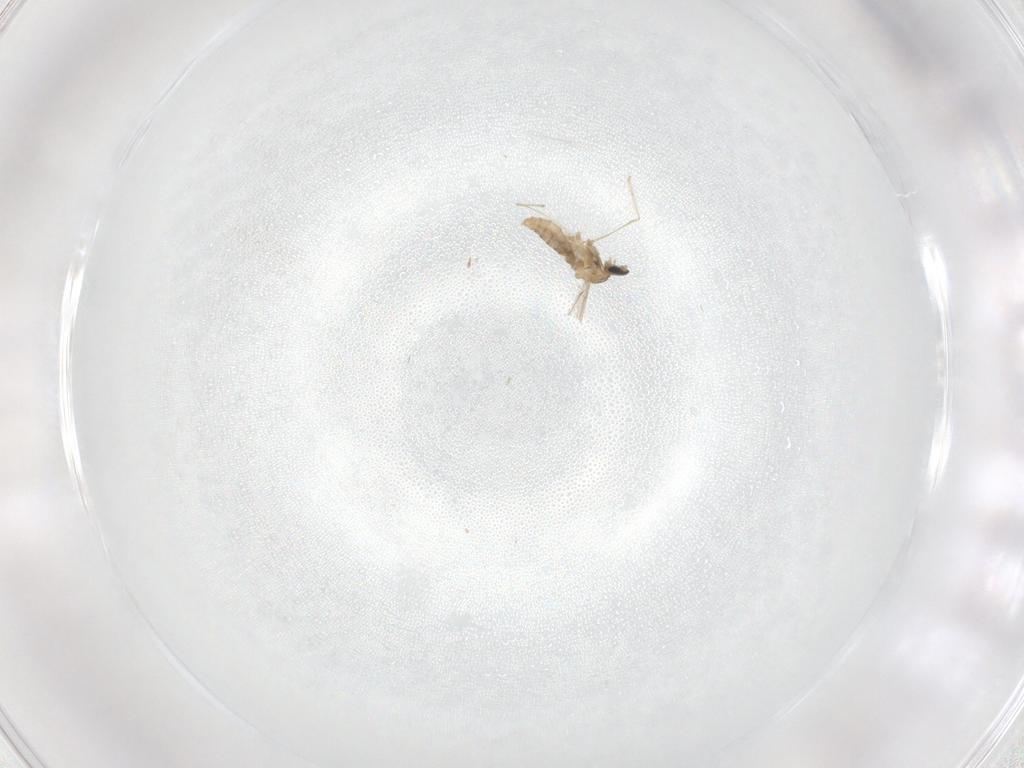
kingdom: Animalia
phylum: Arthropoda
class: Insecta
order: Diptera
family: Cecidomyiidae
